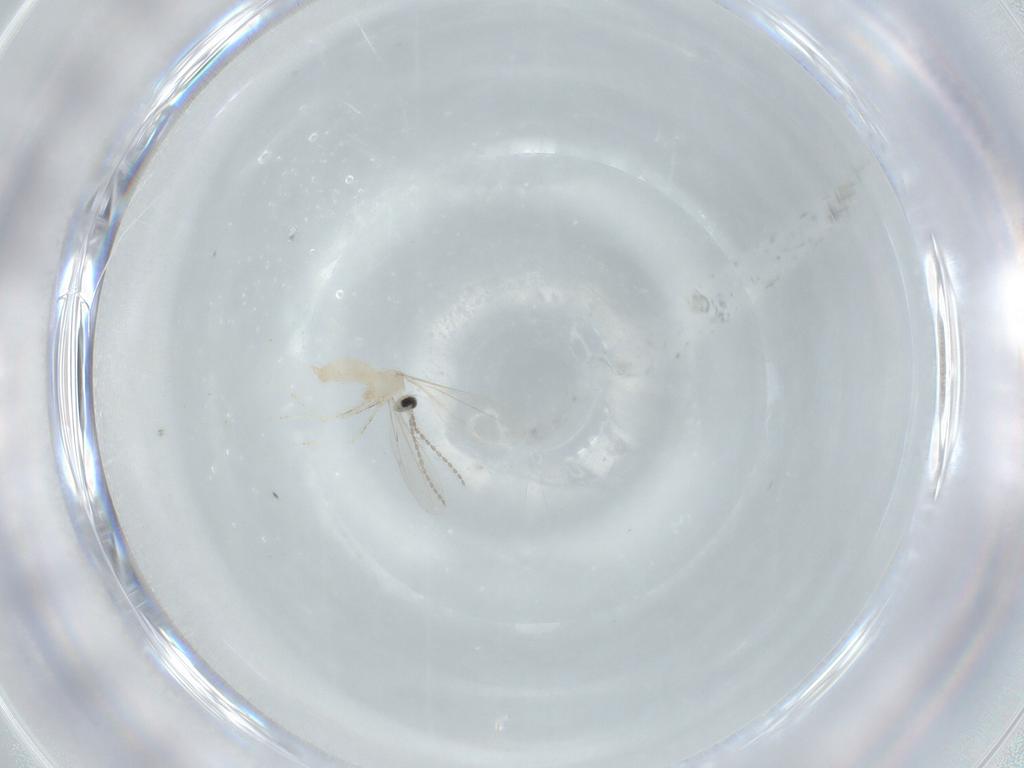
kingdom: Animalia
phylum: Arthropoda
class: Insecta
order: Diptera
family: Cecidomyiidae
